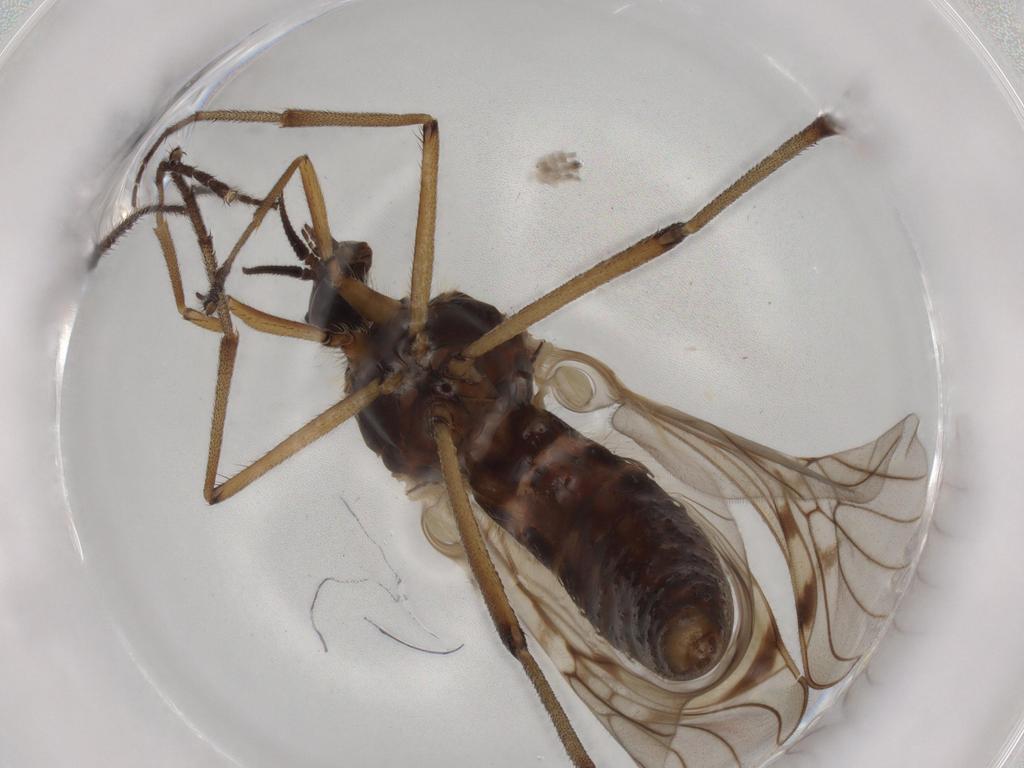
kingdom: Animalia
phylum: Arthropoda
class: Insecta
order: Diptera
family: Anisopodidae
